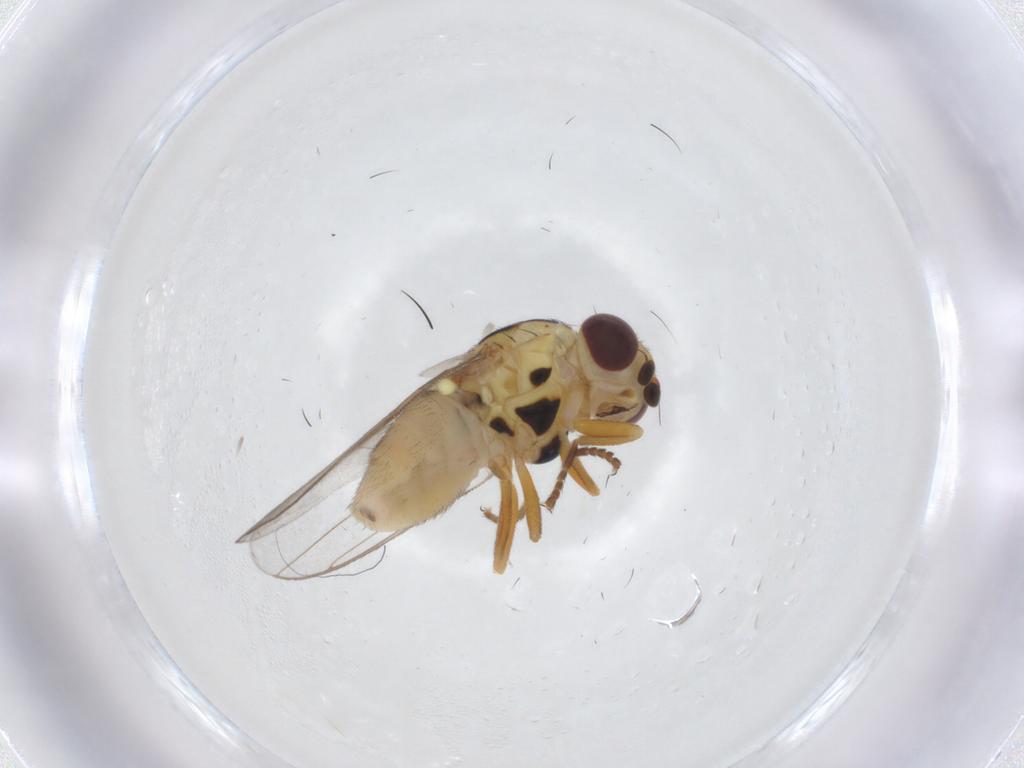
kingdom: Animalia
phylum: Arthropoda
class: Insecta
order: Diptera
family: Chloropidae
